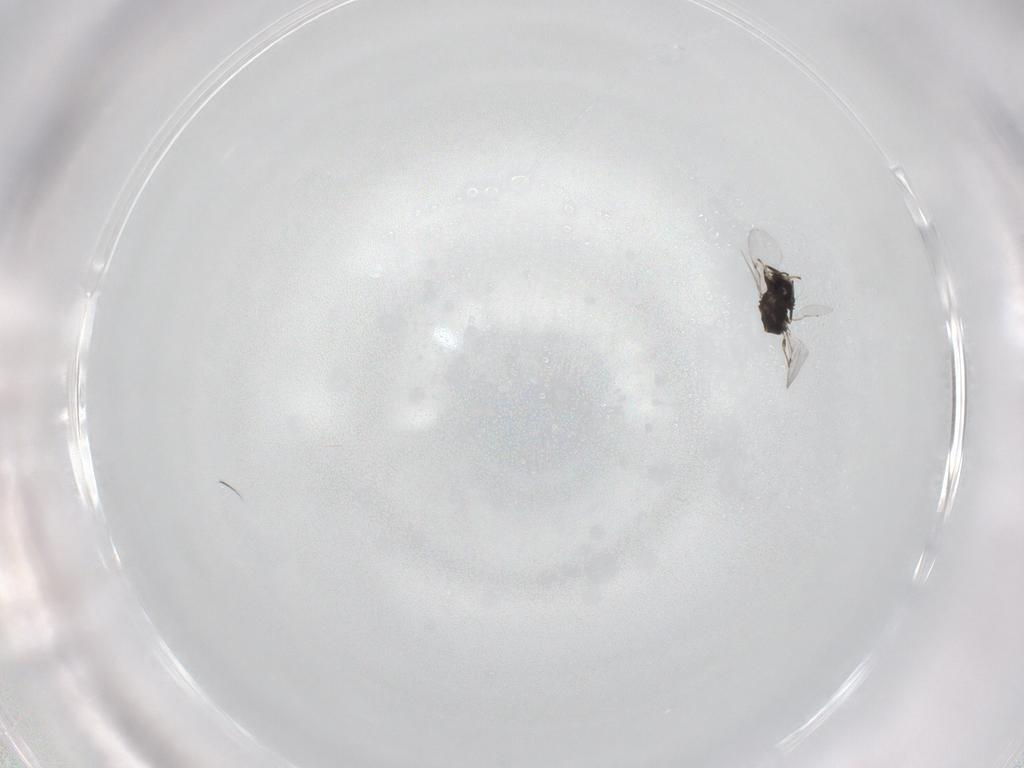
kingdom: Animalia
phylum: Arthropoda
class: Insecta
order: Hymenoptera
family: Encyrtidae
